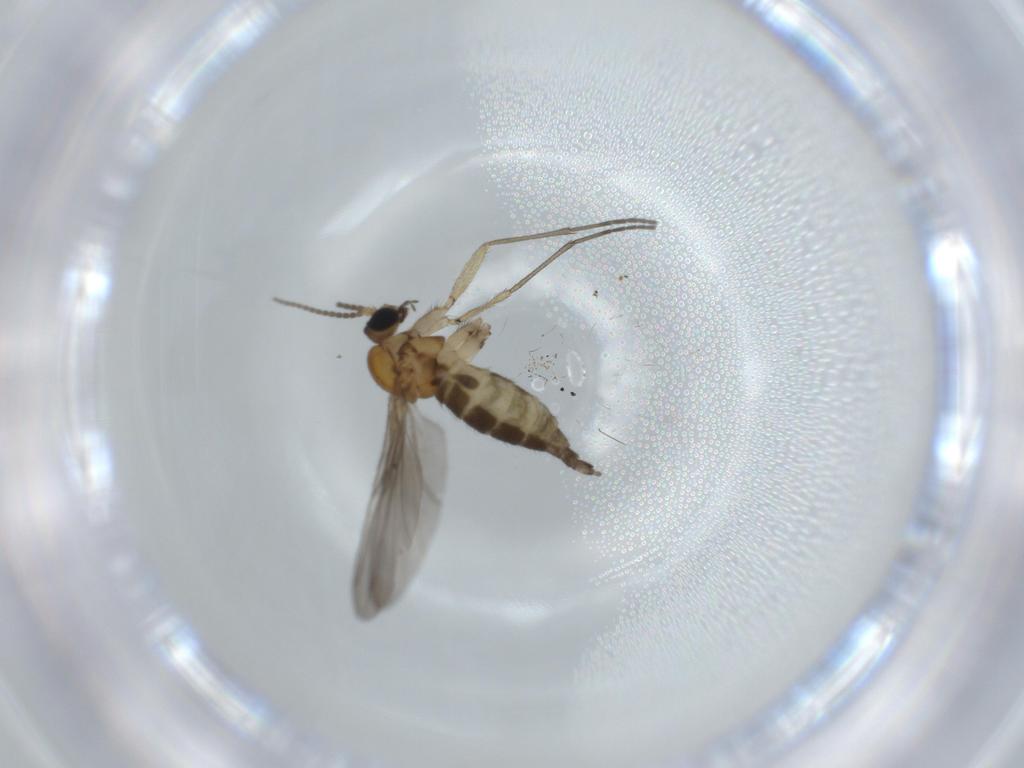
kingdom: Animalia
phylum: Arthropoda
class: Insecta
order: Diptera
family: Sciaridae
